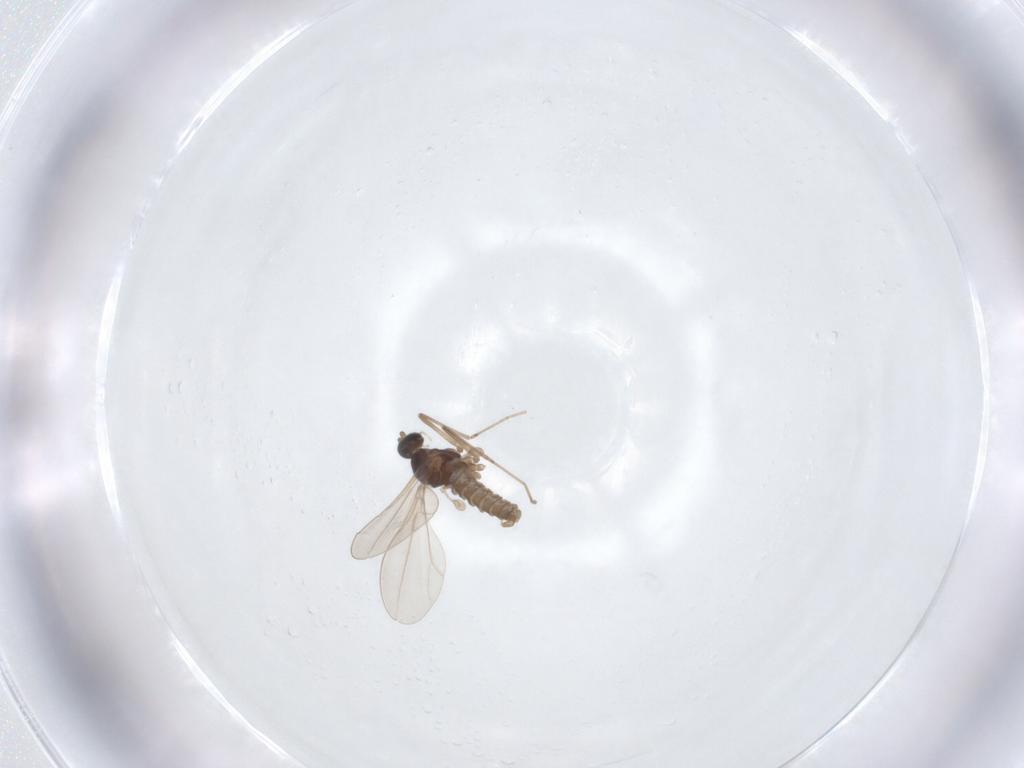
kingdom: Animalia
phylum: Arthropoda
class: Insecta
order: Diptera
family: Cecidomyiidae
